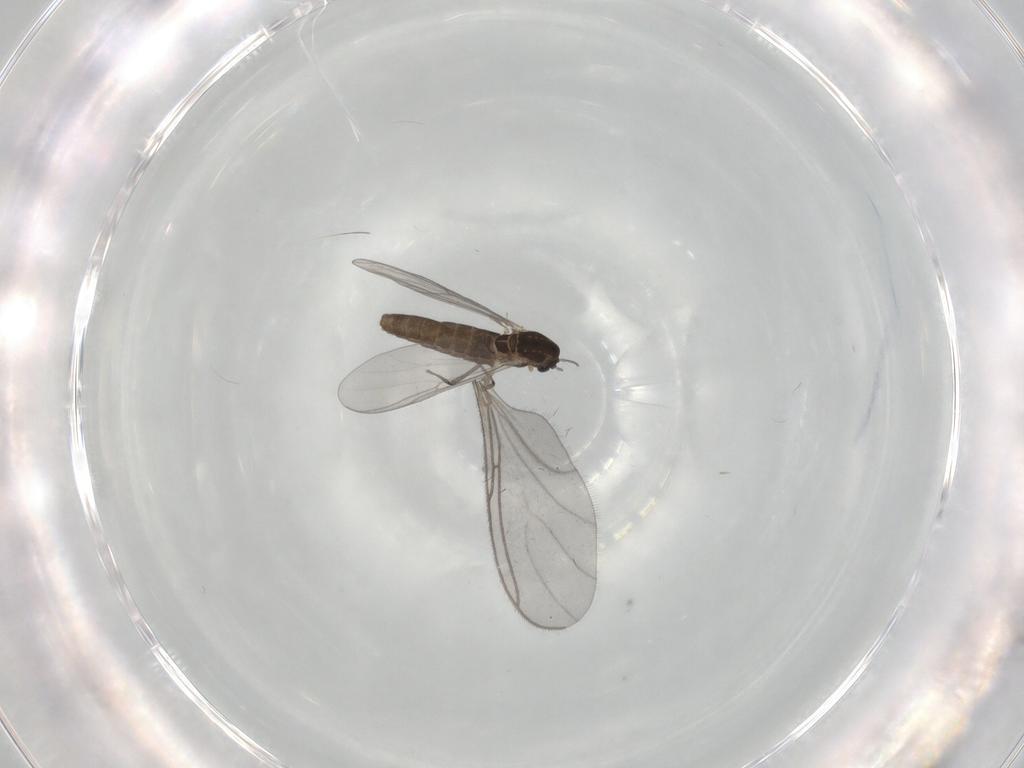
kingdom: Animalia
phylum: Arthropoda
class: Insecta
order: Diptera
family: Chironomidae
